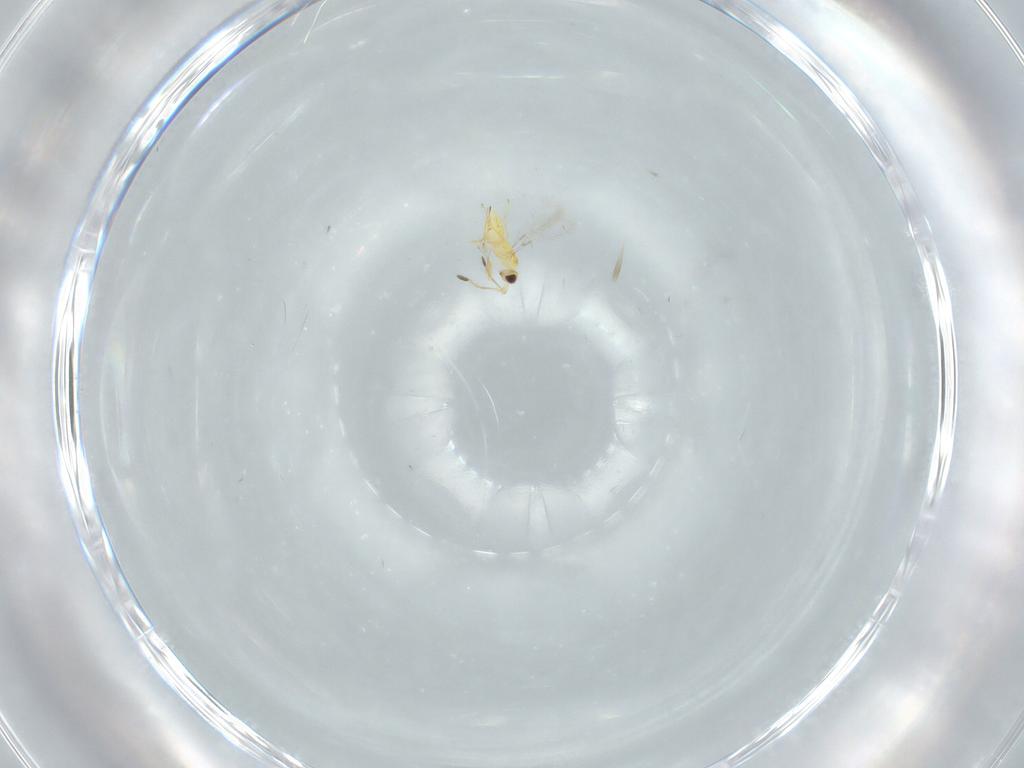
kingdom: Animalia
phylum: Arthropoda
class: Insecta
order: Hymenoptera
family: Mymaridae
